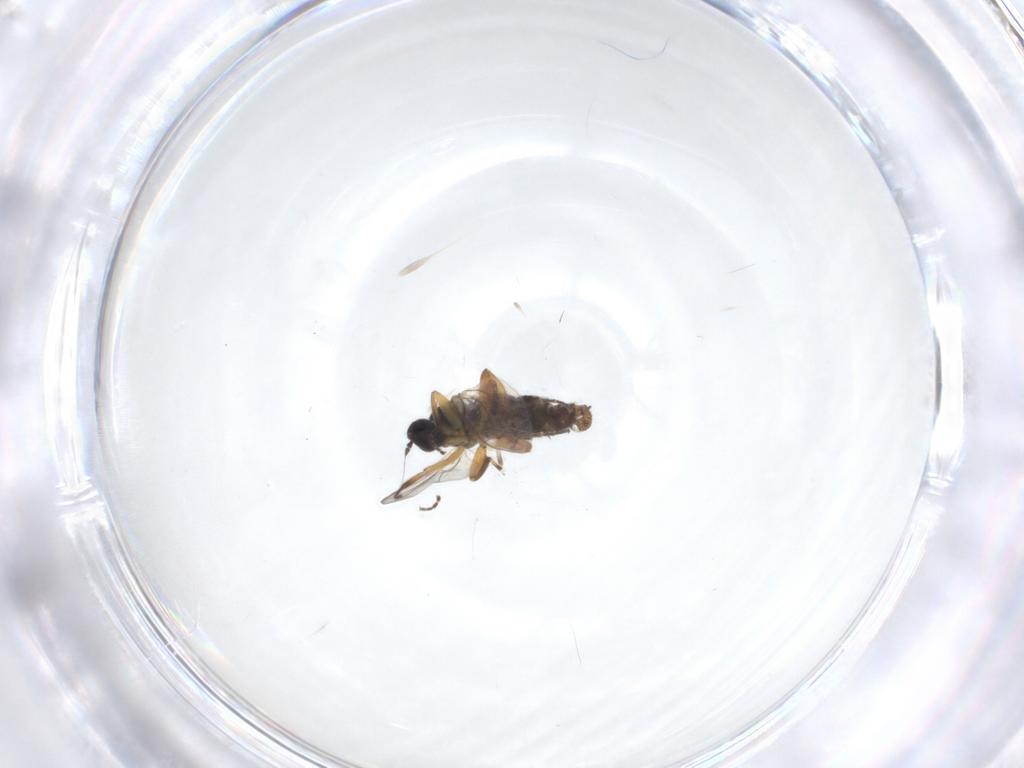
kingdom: Animalia
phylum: Arthropoda
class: Insecta
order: Diptera
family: Hybotidae
